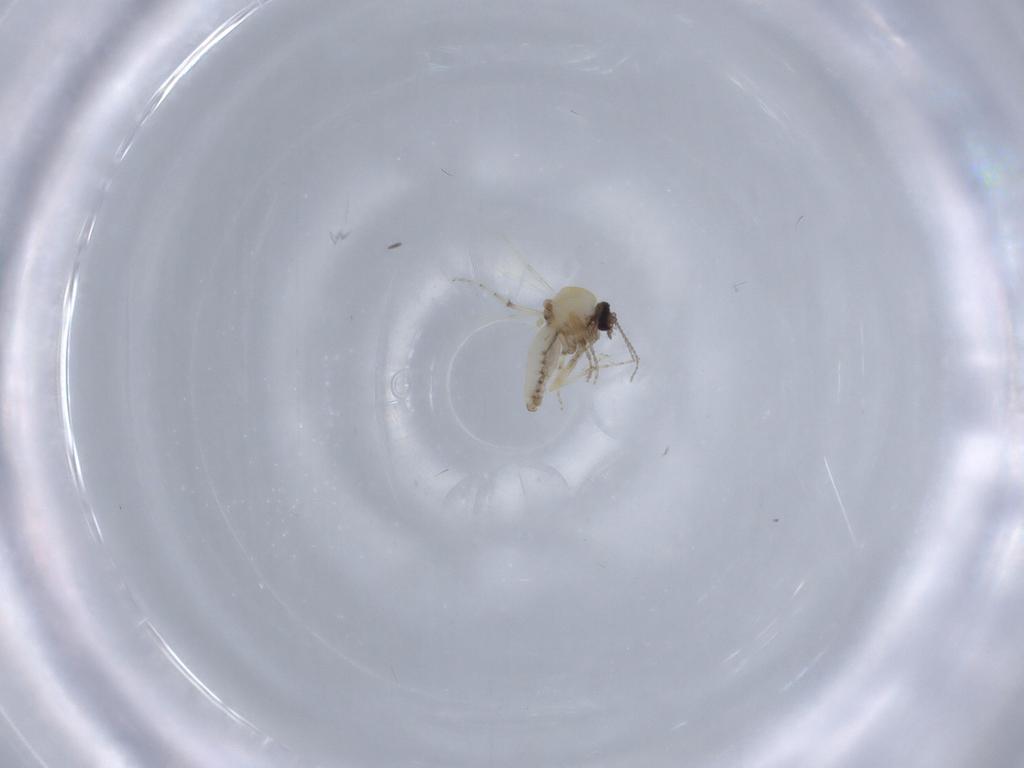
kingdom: Animalia
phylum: Arthropoda
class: Insecta
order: Diptera
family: Ceratopogonidae
